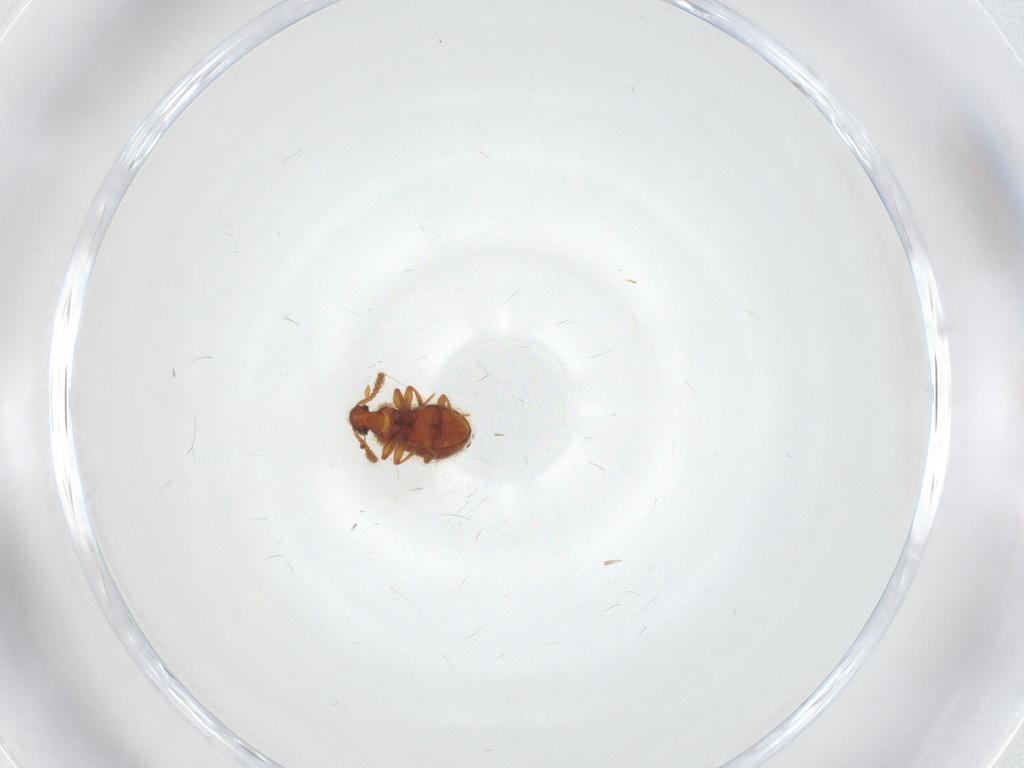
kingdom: Animalia
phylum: Arthropoda
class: Insecta
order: Coleoptera
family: Staphylinidae
